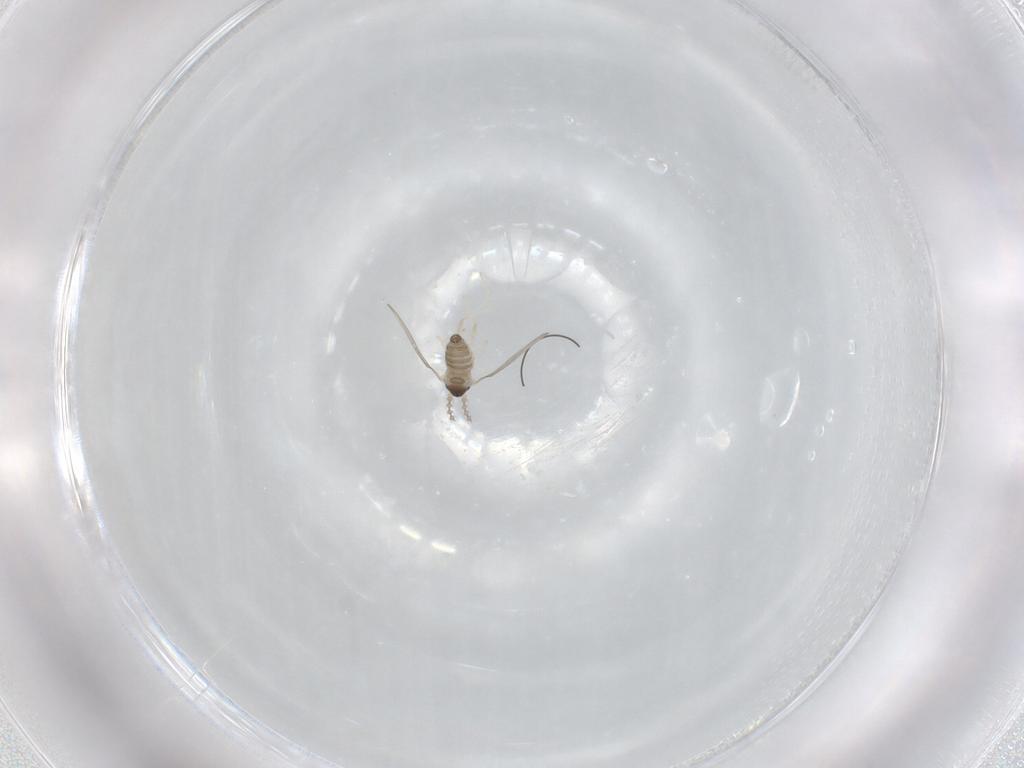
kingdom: Animalia
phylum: Arthropoda
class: Insecta
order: Diptera
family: Cecidomyiidae
